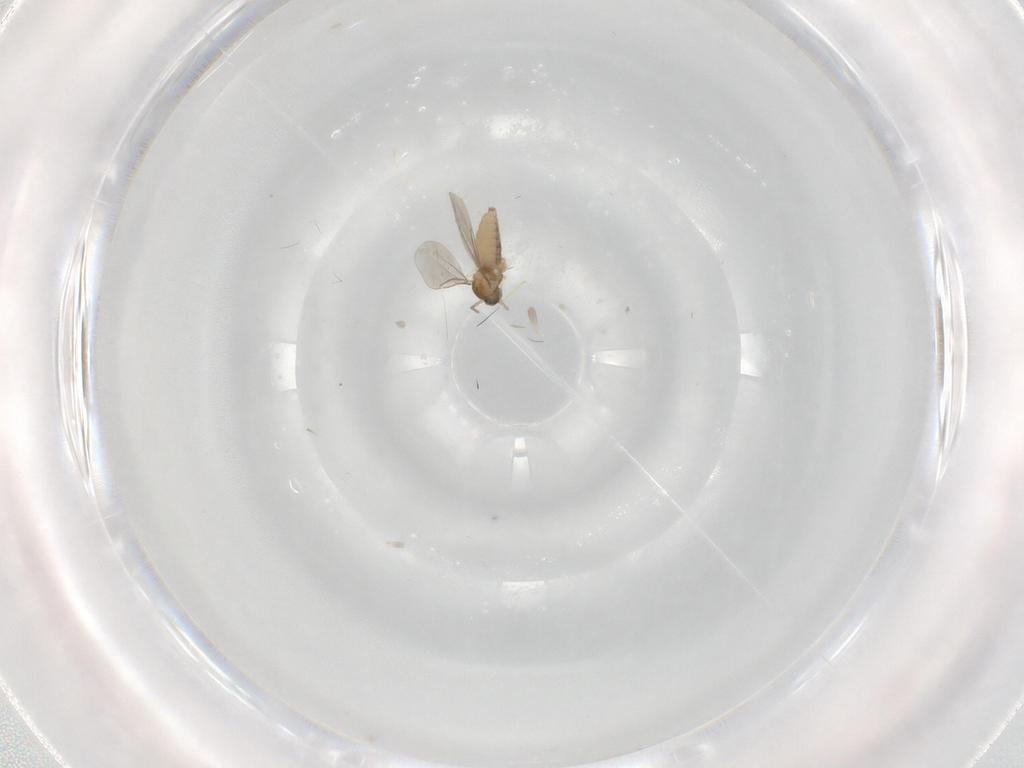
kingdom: Animalia
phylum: Arthropoda
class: Insecta
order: Diptera
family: Cecidomyiidae
